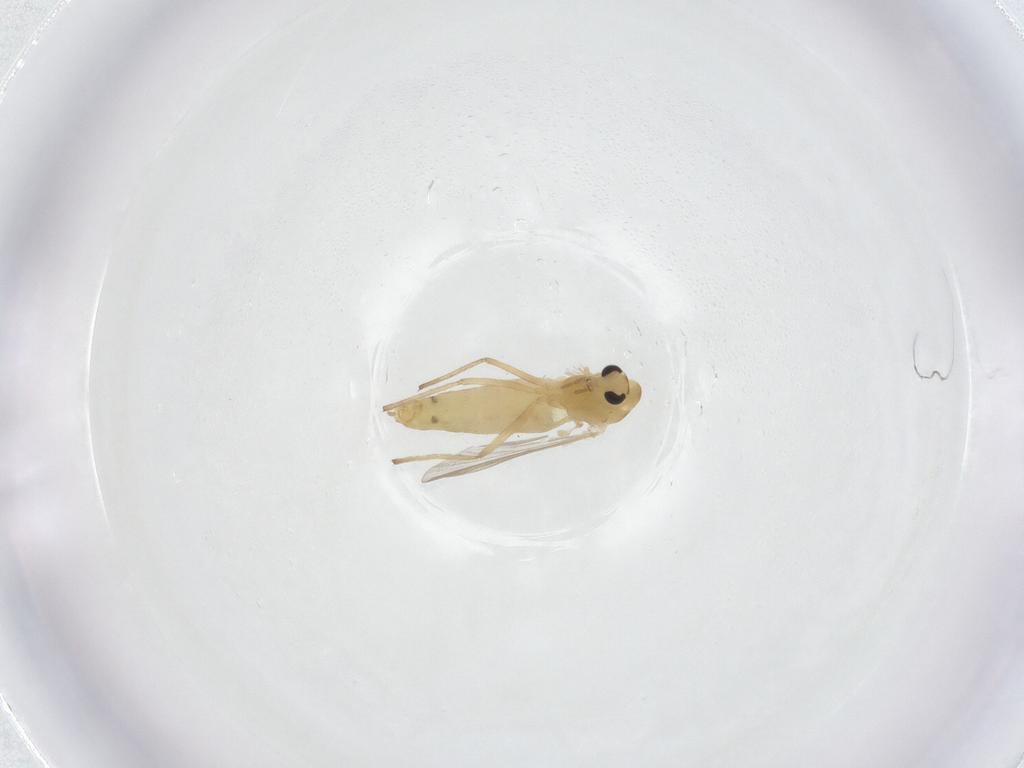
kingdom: Animalia
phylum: Arthropoda
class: Insecta
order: Diptera
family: Chironomidae
